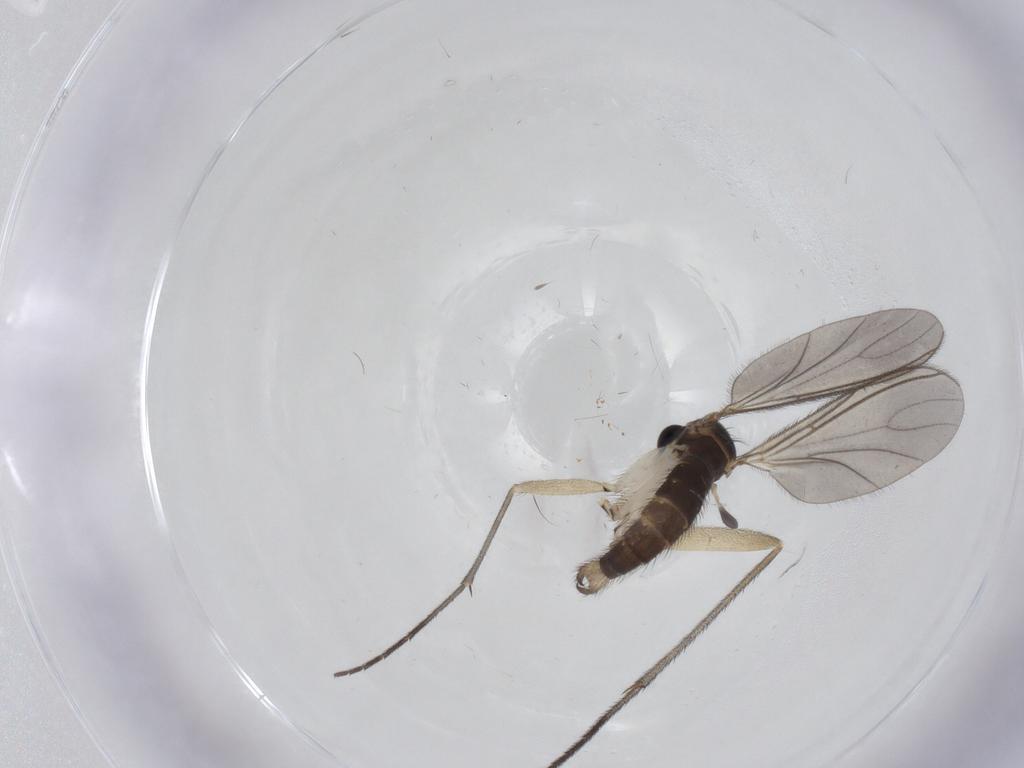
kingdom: Animalia
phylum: Arthropoda
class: Insecta
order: Diptera
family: Sciaridae
